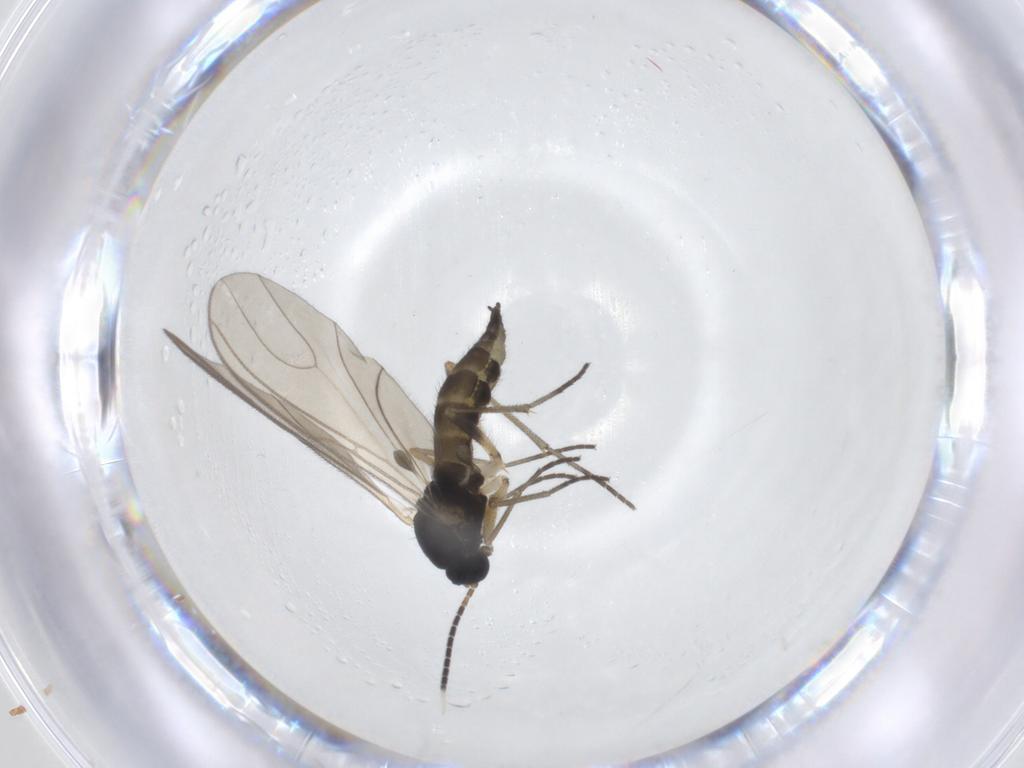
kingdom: Animalia
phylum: Arthropoda
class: Insecta
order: Diptera
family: Sciaridae
